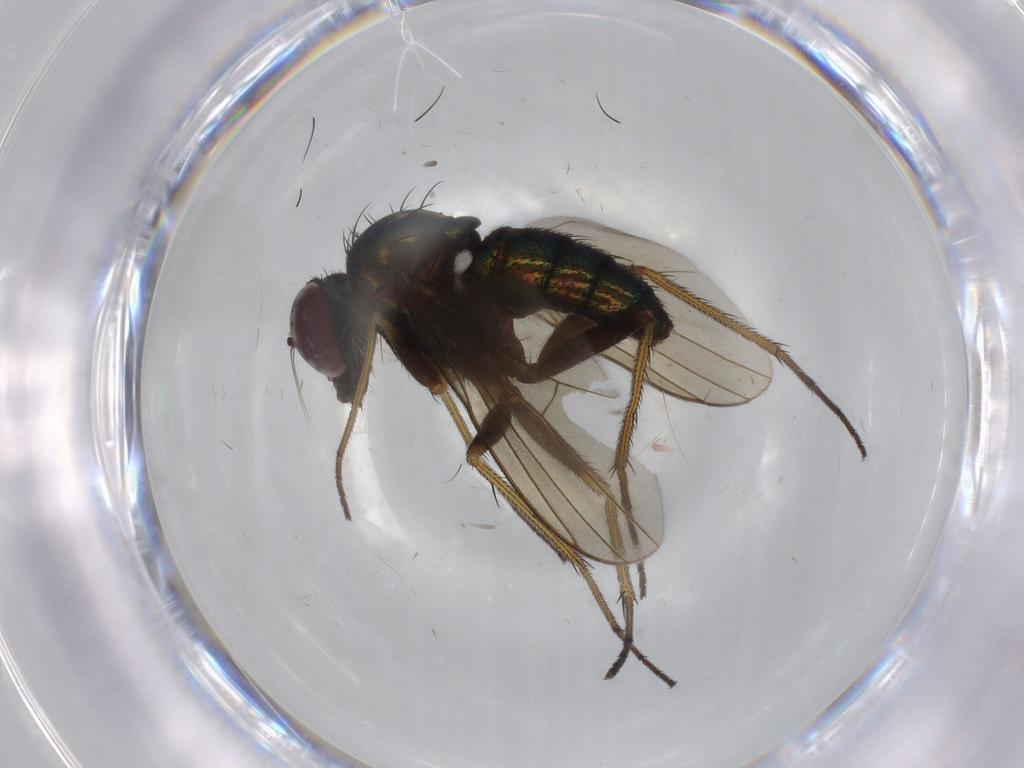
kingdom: Animalia
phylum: Arthropoda
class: Insecta
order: Diptera
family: Dolichopodidae
